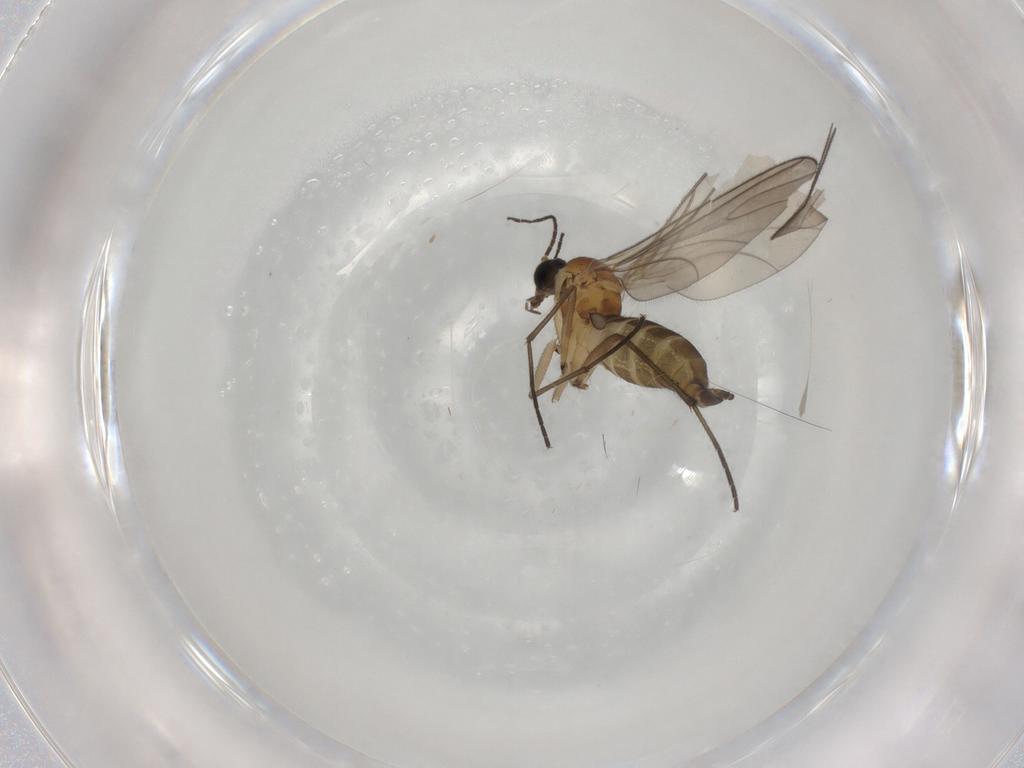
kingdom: Animalia
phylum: Arthropoda
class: Insecta
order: Diptera
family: Sciaridae
